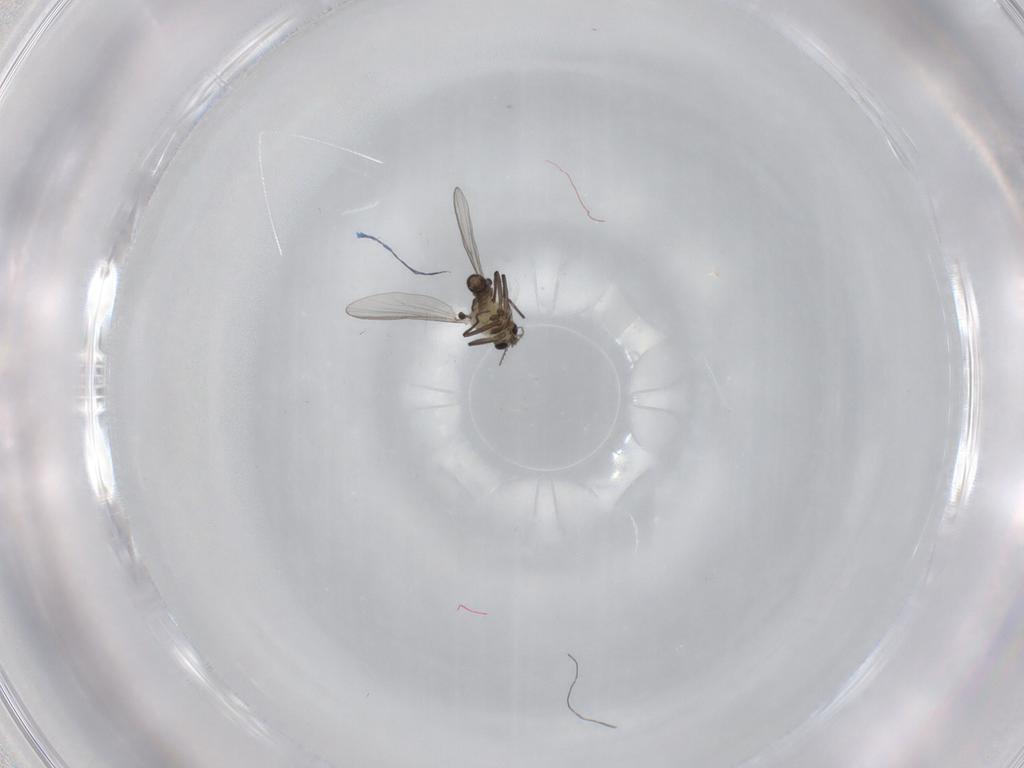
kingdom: Animalia
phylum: Arthropoda
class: Insecta
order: Diptera
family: Chironomidae
